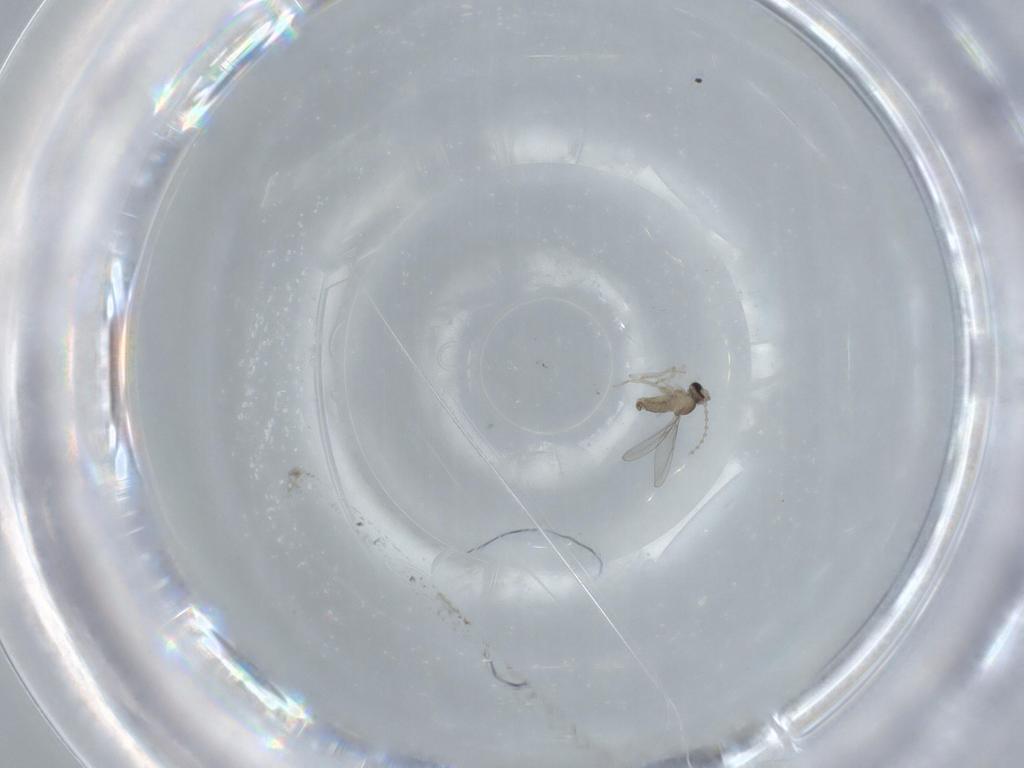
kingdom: Animalia
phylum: Arthropoda
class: Insecta
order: Diptera
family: Cecidomyiidae
